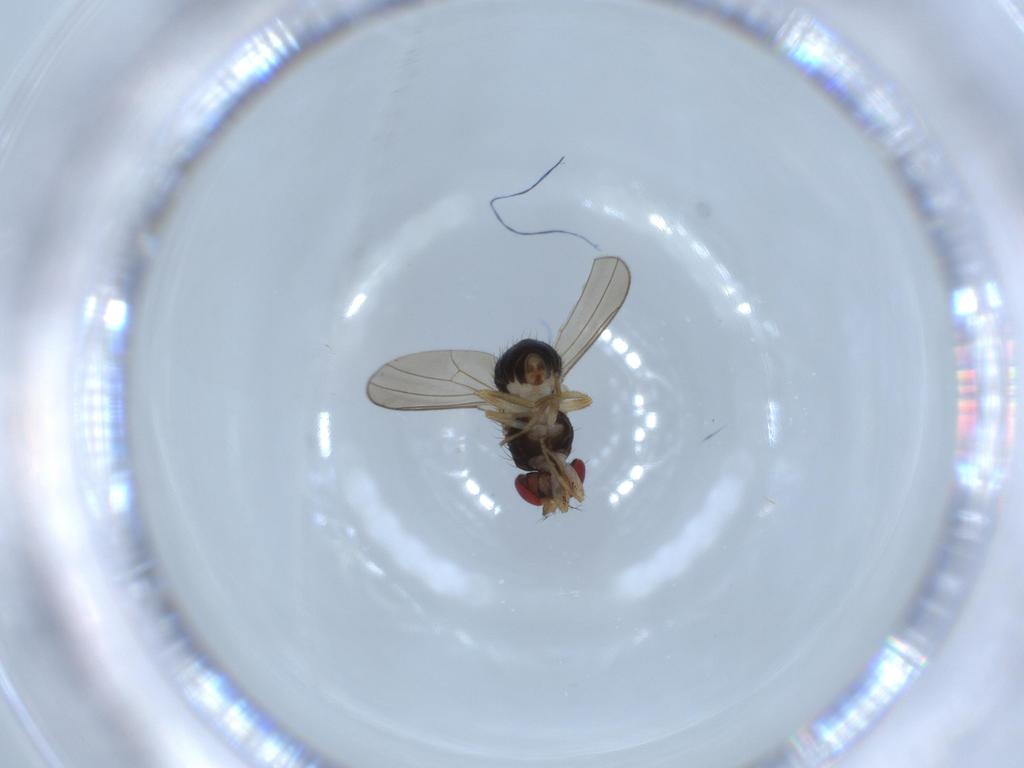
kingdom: Animalia
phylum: Arthropoda
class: Insecta
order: Diptera
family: Drosophilidae
